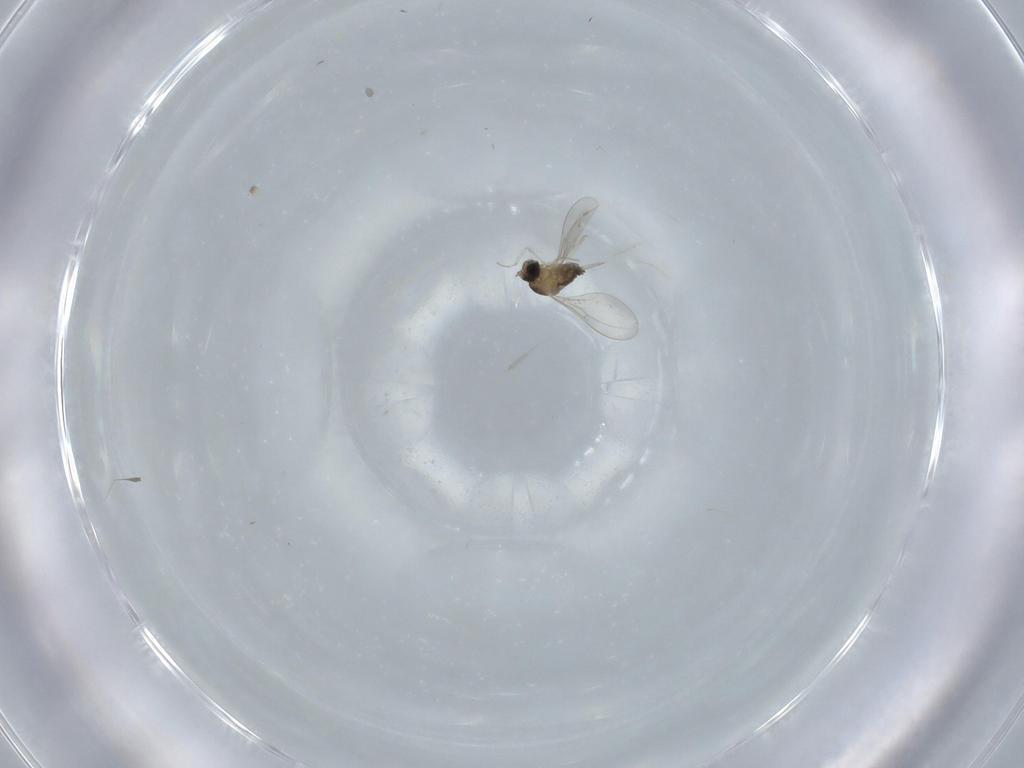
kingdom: Animalia
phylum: Arthropoda
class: Insecta
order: Diptera
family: Cecidomyiidae
